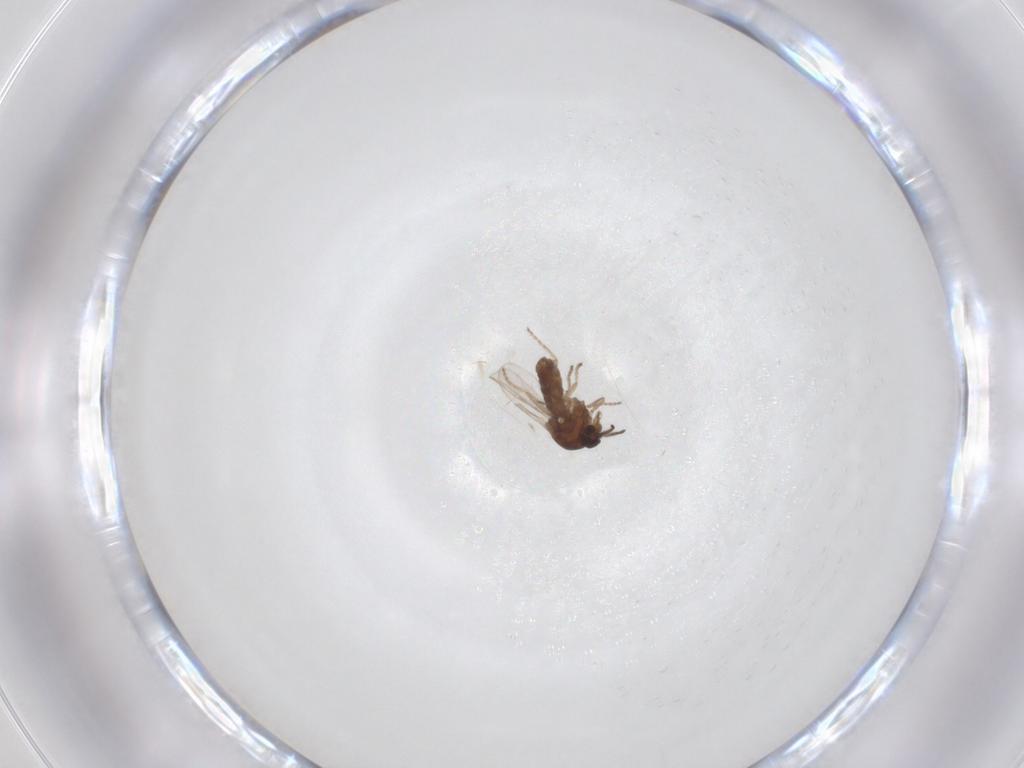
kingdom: Animalia
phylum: Arthropoda
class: Insecta
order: Diptera
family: Ceratopogonidae
